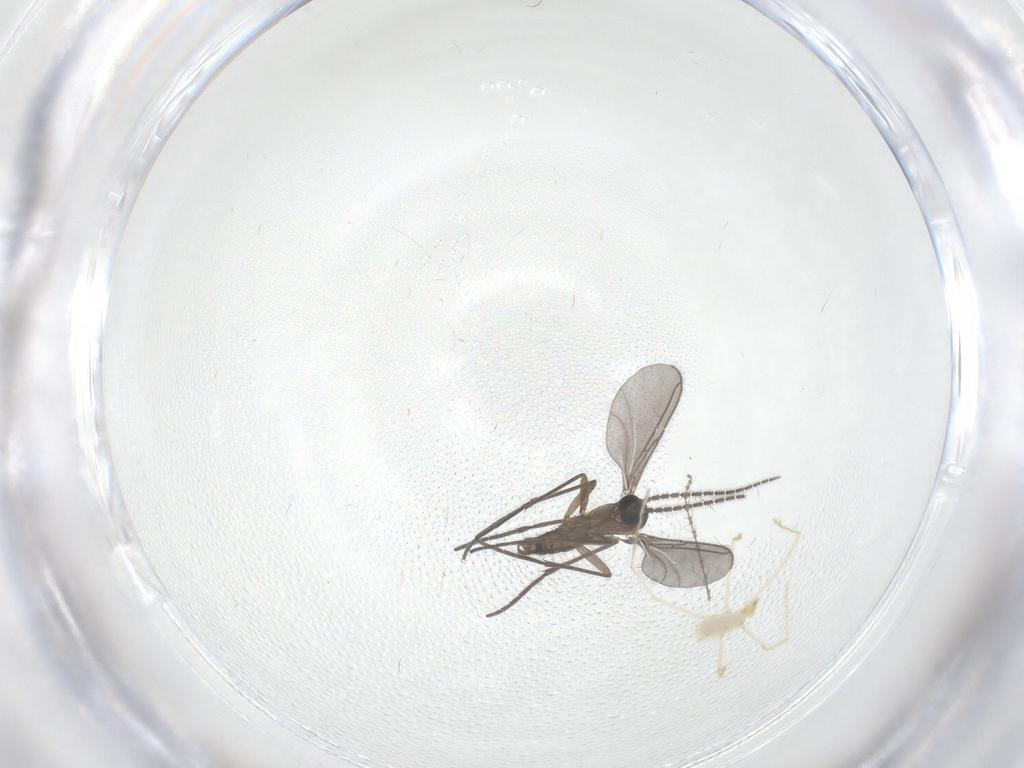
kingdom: Animalia
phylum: Arthropoda
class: Insecta
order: Diptera
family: Sciaridae
